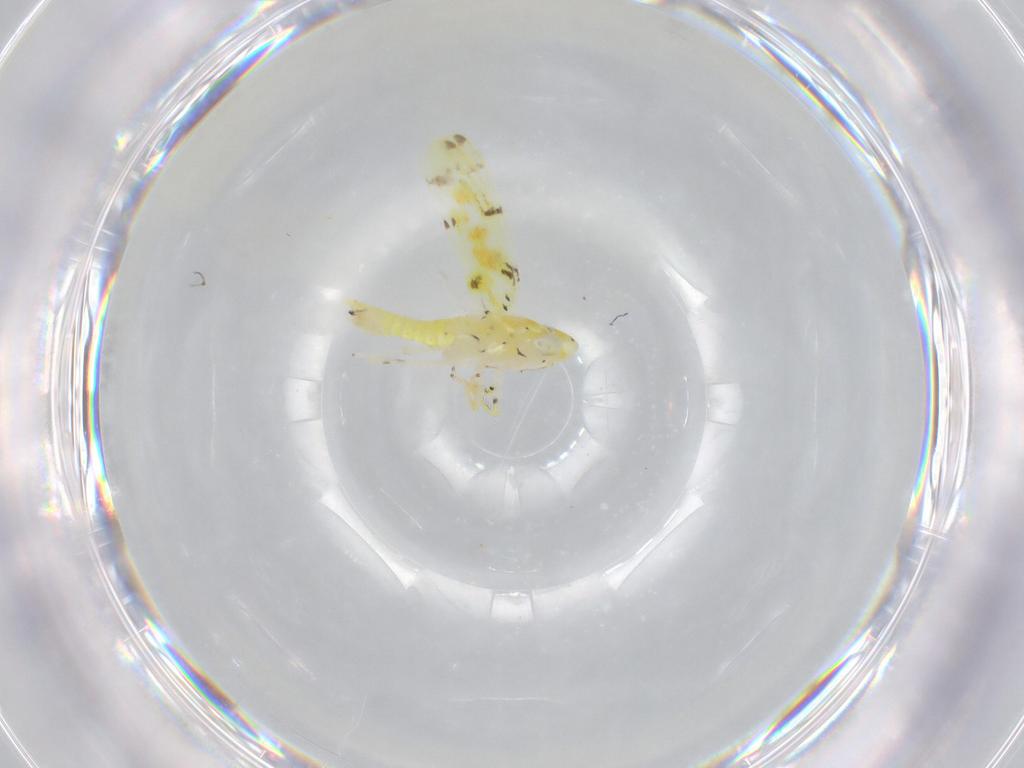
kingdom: Animalia
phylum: Arthropoda
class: Insecta
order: Hemiptera
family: Cicadellidae
